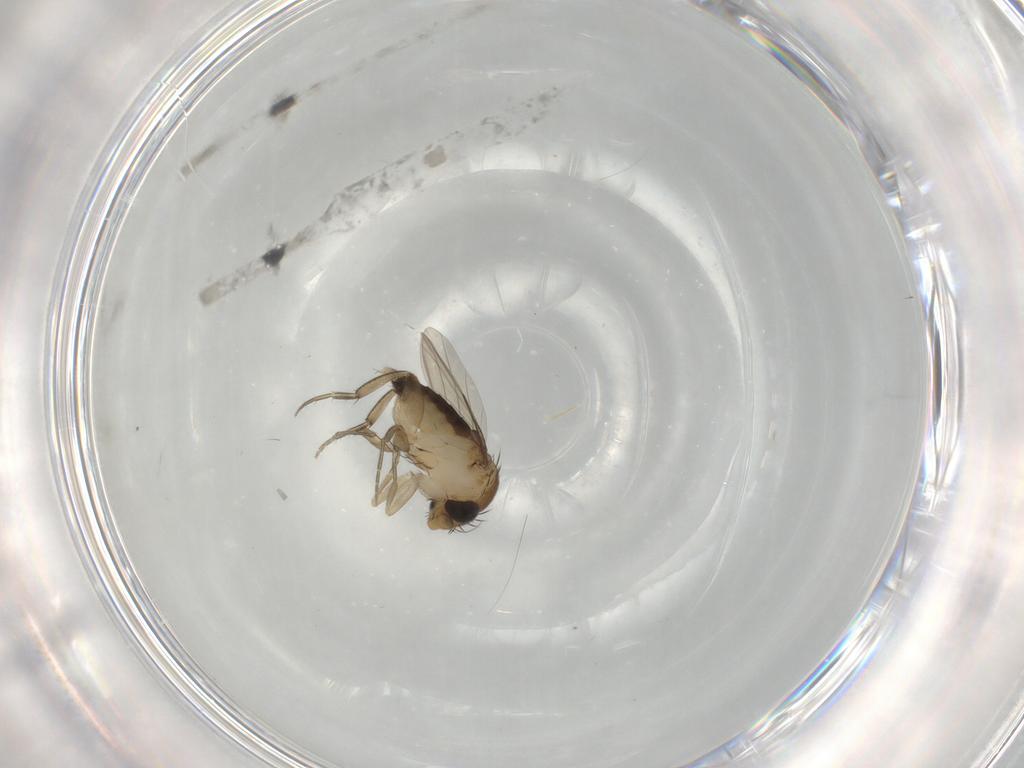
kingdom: Animalia
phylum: Arthropoda
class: Insecta
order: Diptera
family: Phoridae
